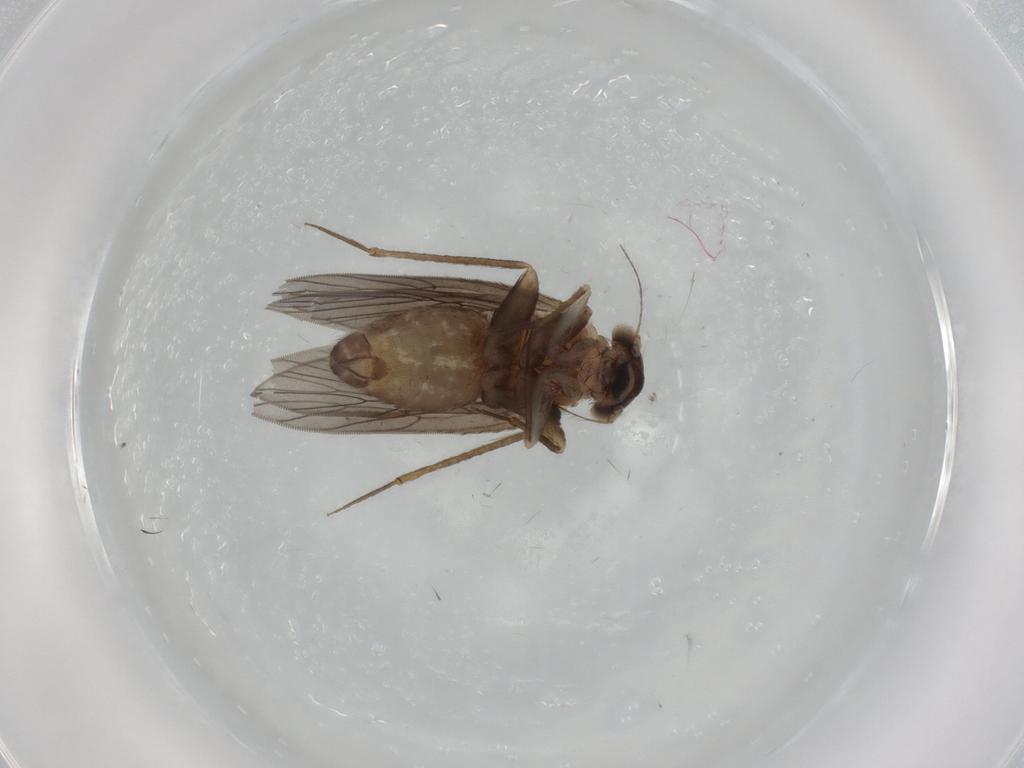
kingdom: Animalia
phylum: Arthropoda
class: Insecta
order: Psocodea
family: Lepidopsocidae
